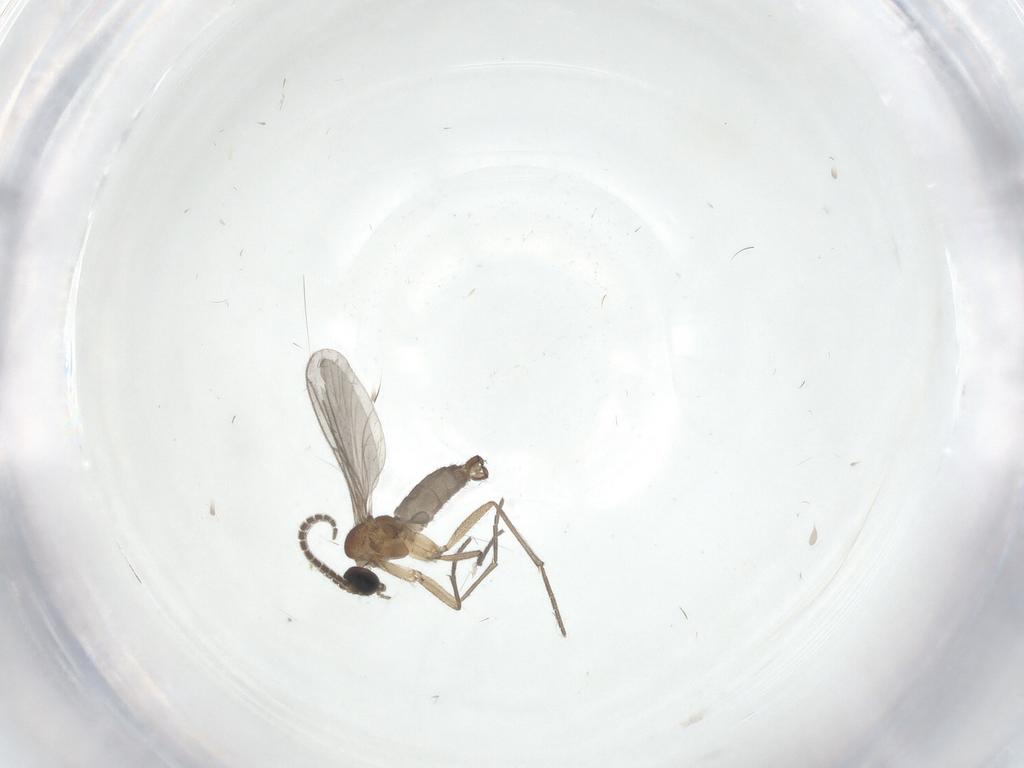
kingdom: Animalia
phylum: Arthropoda
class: Insecta
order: Diptera
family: Sciaridae
